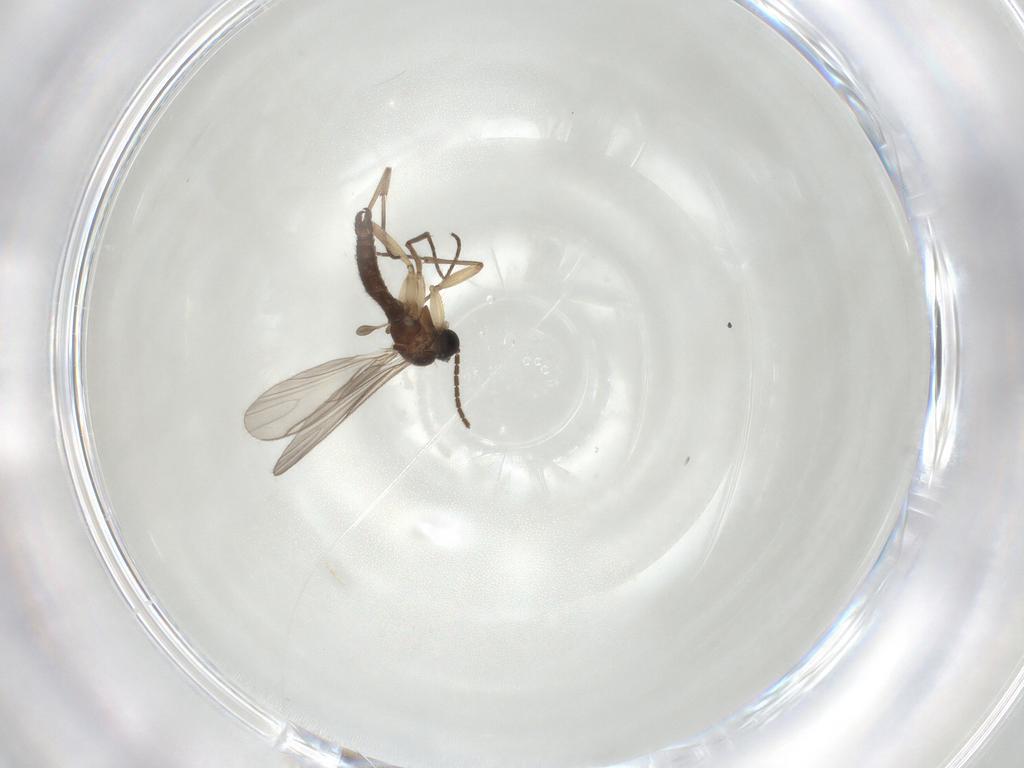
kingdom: Animalia
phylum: Arthropoda
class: Insecta
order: Diptera
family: Sciaridae
